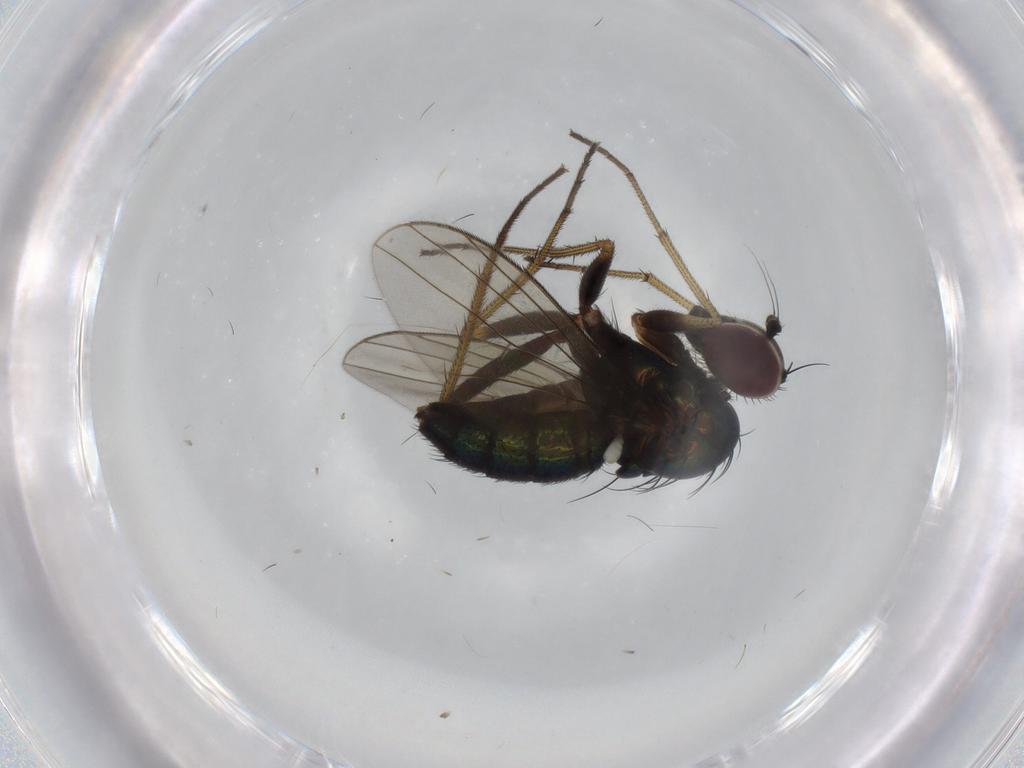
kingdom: Animalia
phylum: Arthropoda
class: Insecta
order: Diptera
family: Dolichopodidae
